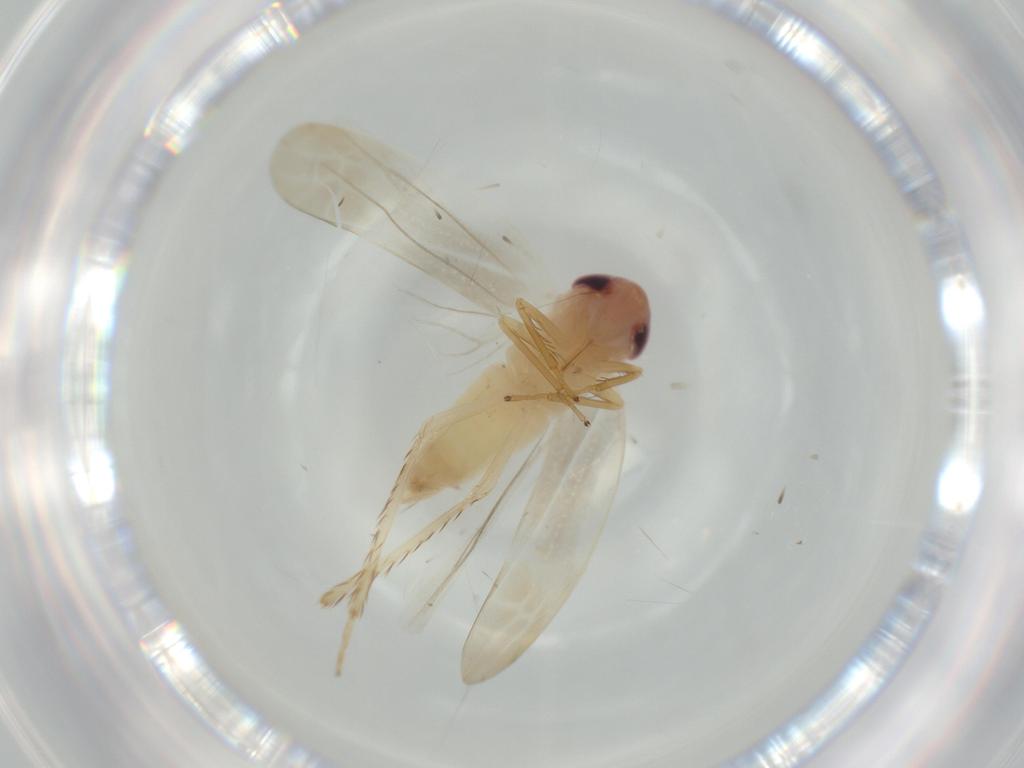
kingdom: Animalia
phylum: Arthropoda
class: Insecta
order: Hemiptera
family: Cicadellidae
